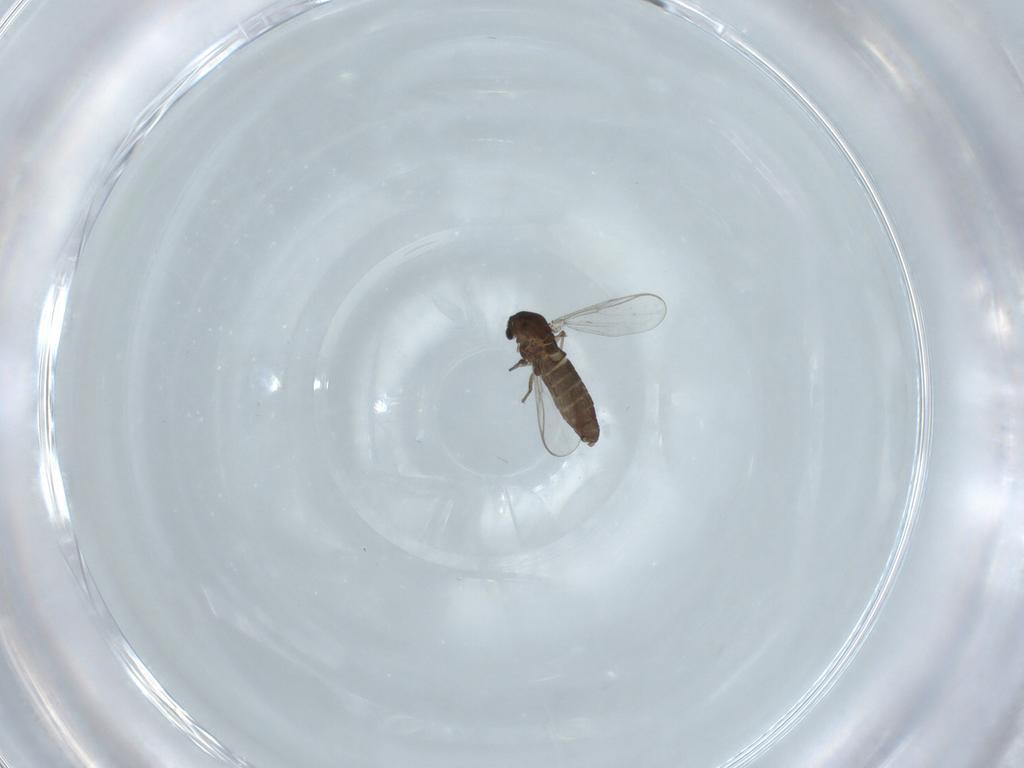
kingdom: Animalia
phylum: Arthropoda
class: Insecta
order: Diptera
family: Chironomidae
